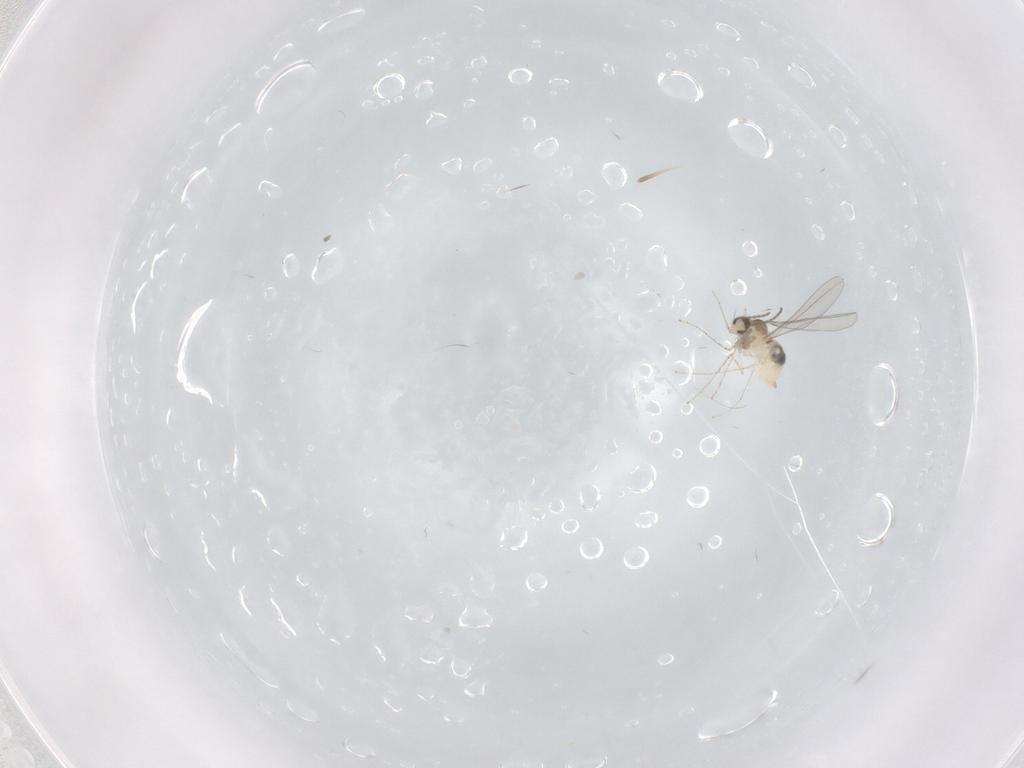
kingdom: Animalia
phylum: Arthropoda
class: Insecta
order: Diptera
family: Cecidomyiidae
